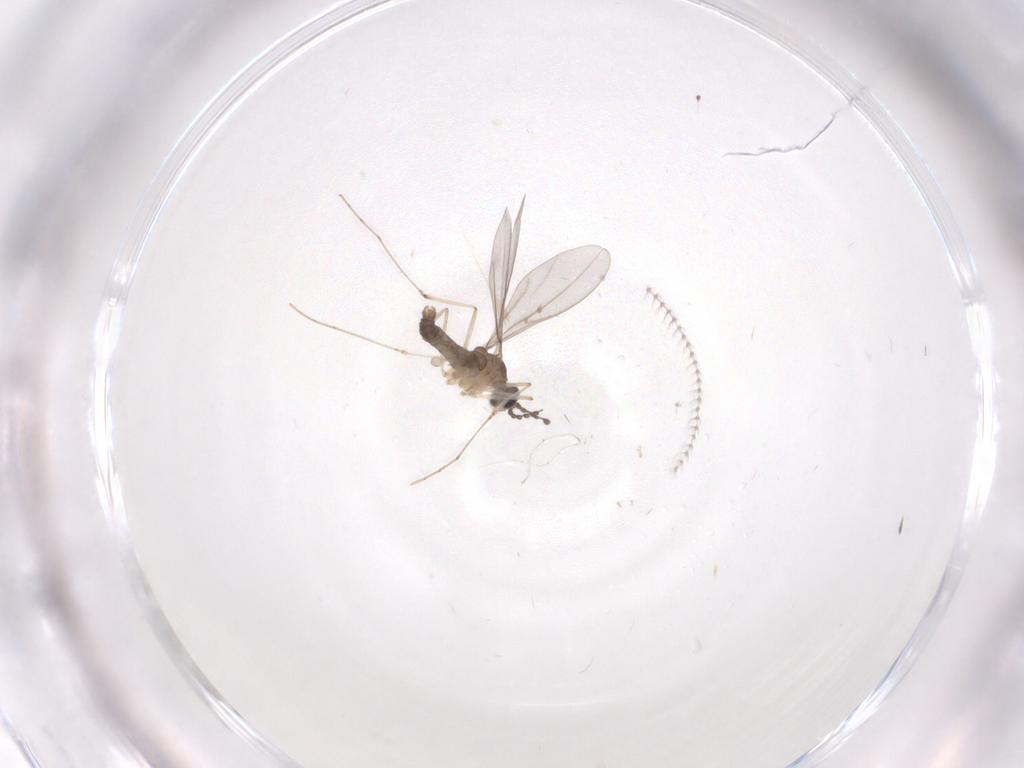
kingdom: Animalia
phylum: Arthropoda
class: Insecta
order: Diptera
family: Cecidomyiidae
